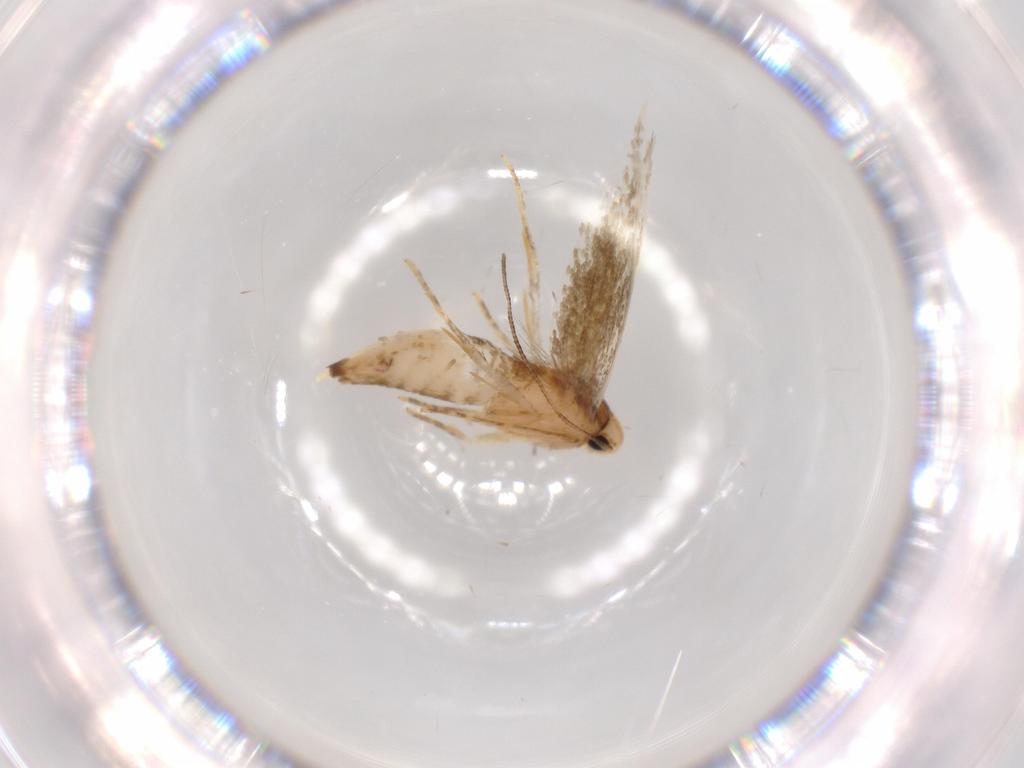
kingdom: Animalia
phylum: Arthropoda
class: Insecta
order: Lepidoptera
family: Tineidae
